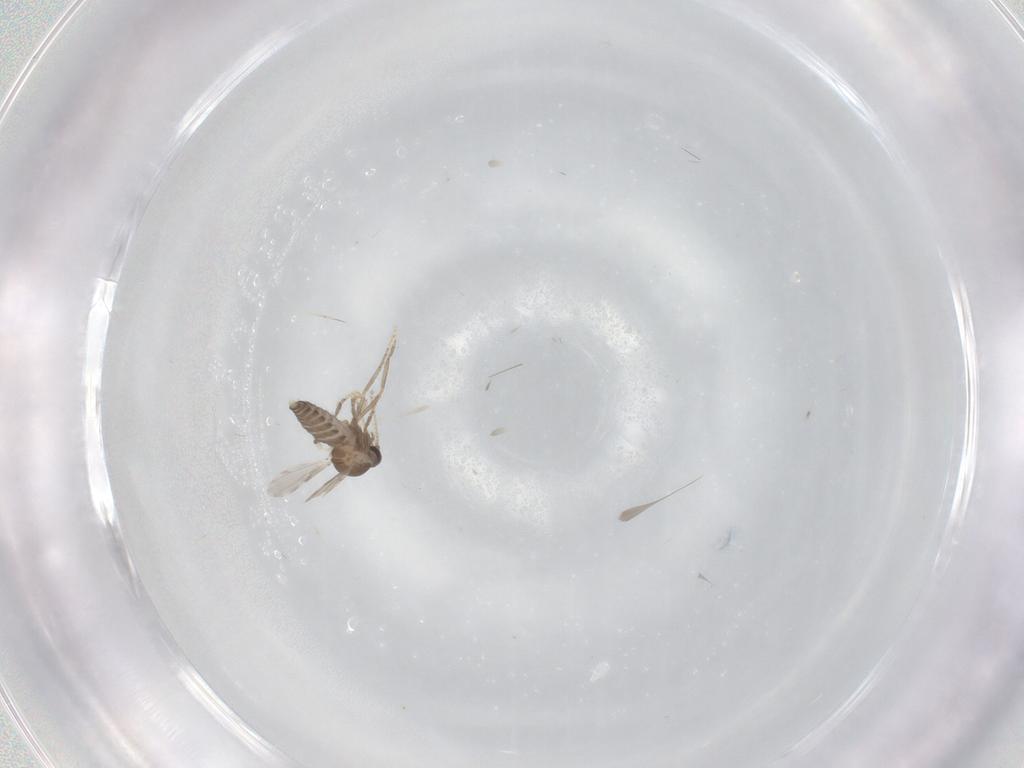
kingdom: Animalia
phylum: Arthropoda
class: Insecta
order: Diptera
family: Ceratopogonidae
